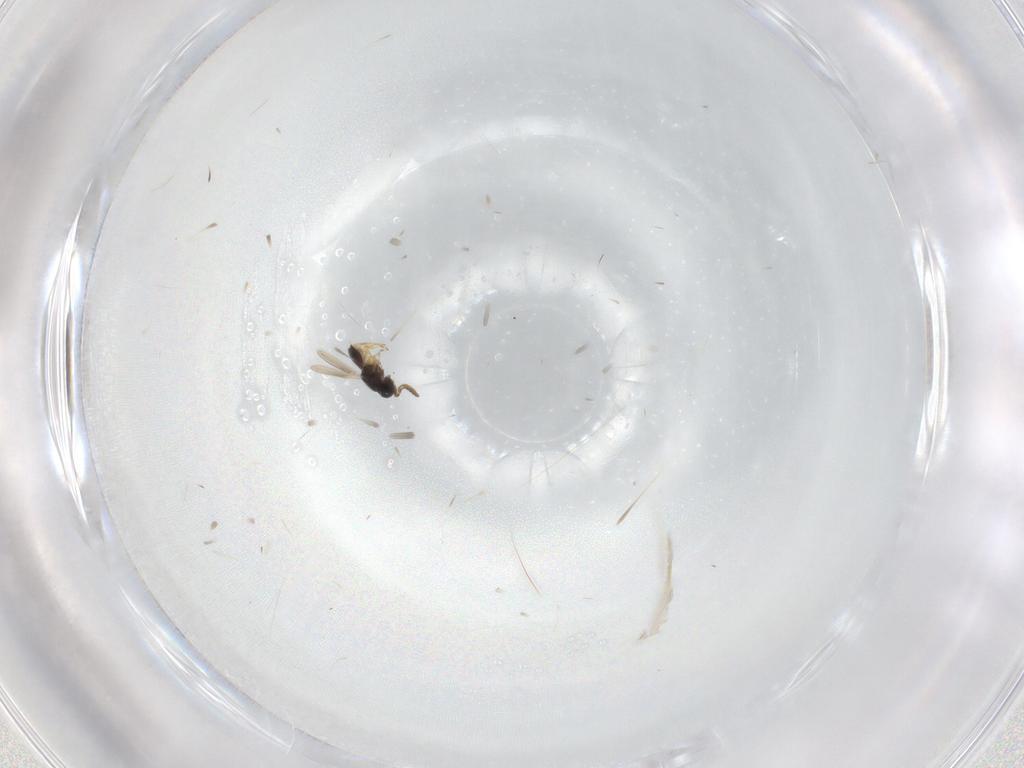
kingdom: Animalia
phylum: Arthropoda
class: Insecta
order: Hymenoptera
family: Scelionidae
